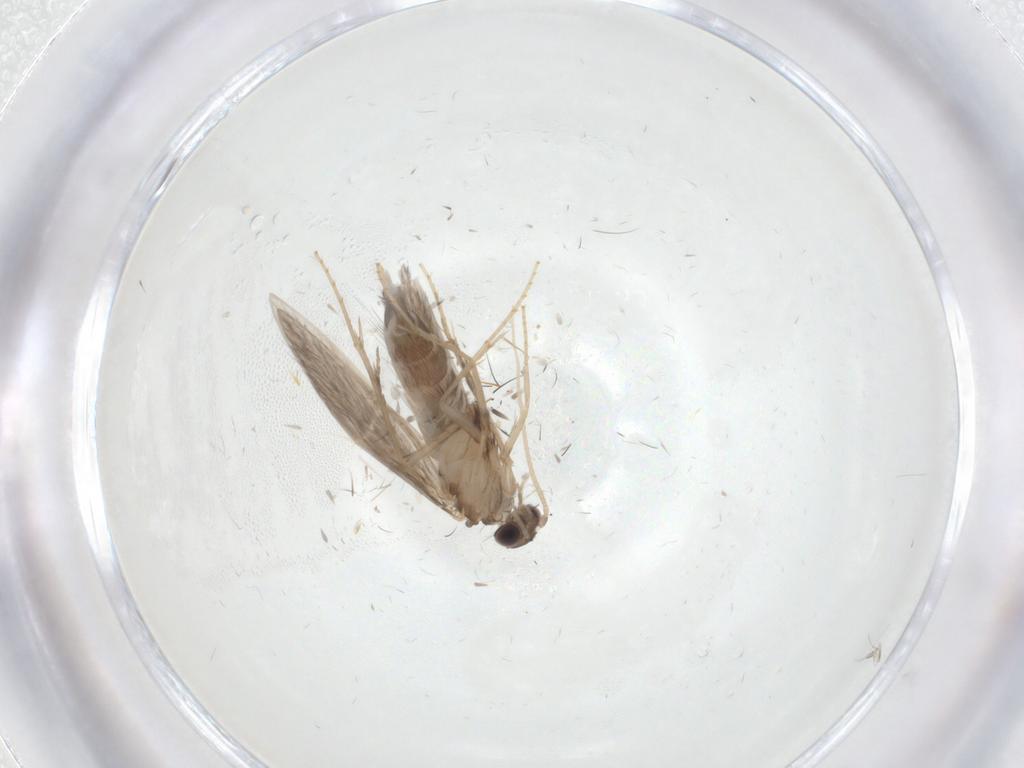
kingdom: Animalia
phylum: Arthropoda
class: Insecta
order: Trichoptera
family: Hydroptilidae
